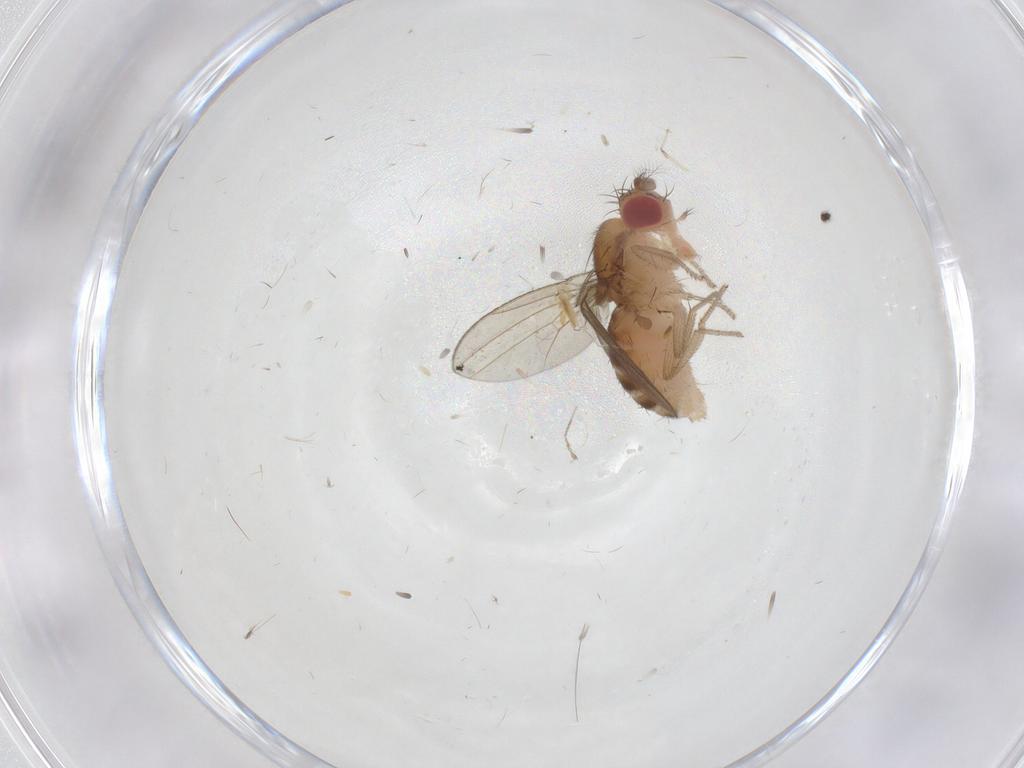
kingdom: Animalia
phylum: Arthropoda
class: Insecta
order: Diptera
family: Drosophilidae
